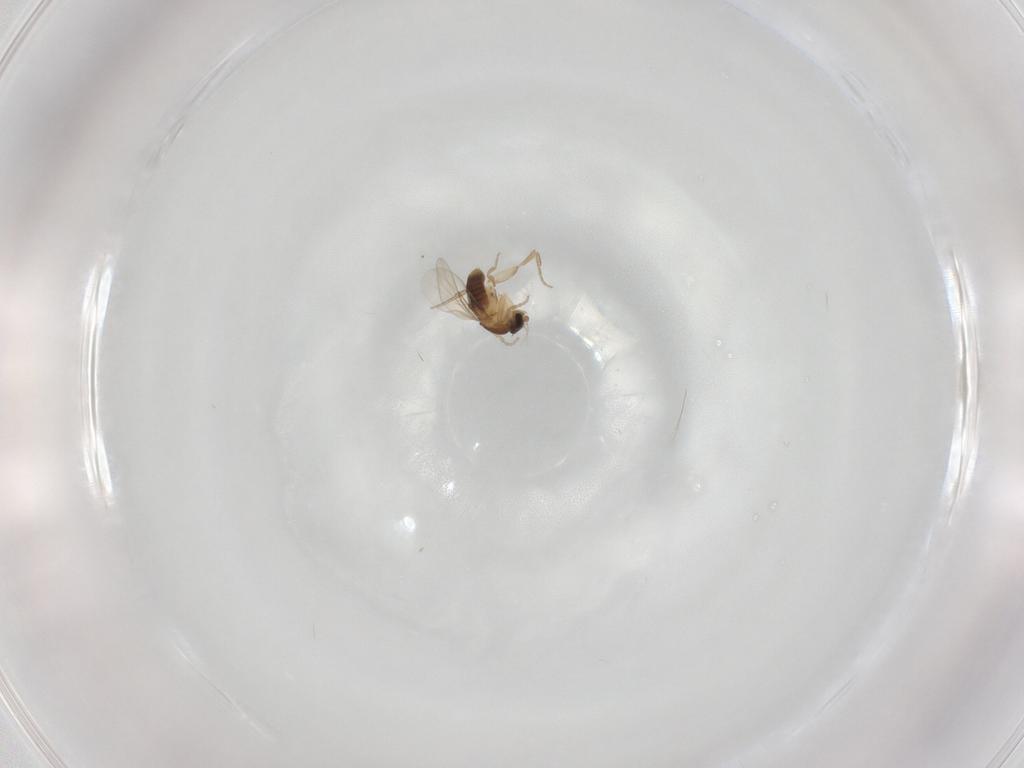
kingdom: Animalia
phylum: Arthropoda
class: Insecta
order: Diptera
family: Phoridae
